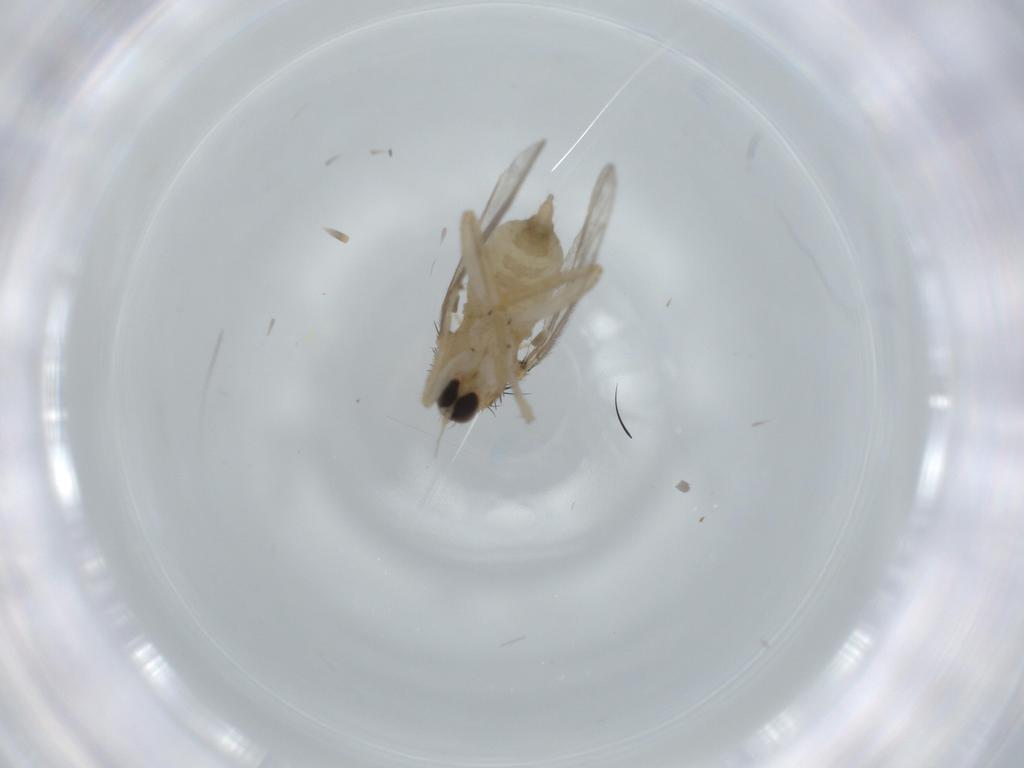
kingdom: Animalia
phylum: Arthropoda
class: Insecta
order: Diptera
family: Hybotidae
